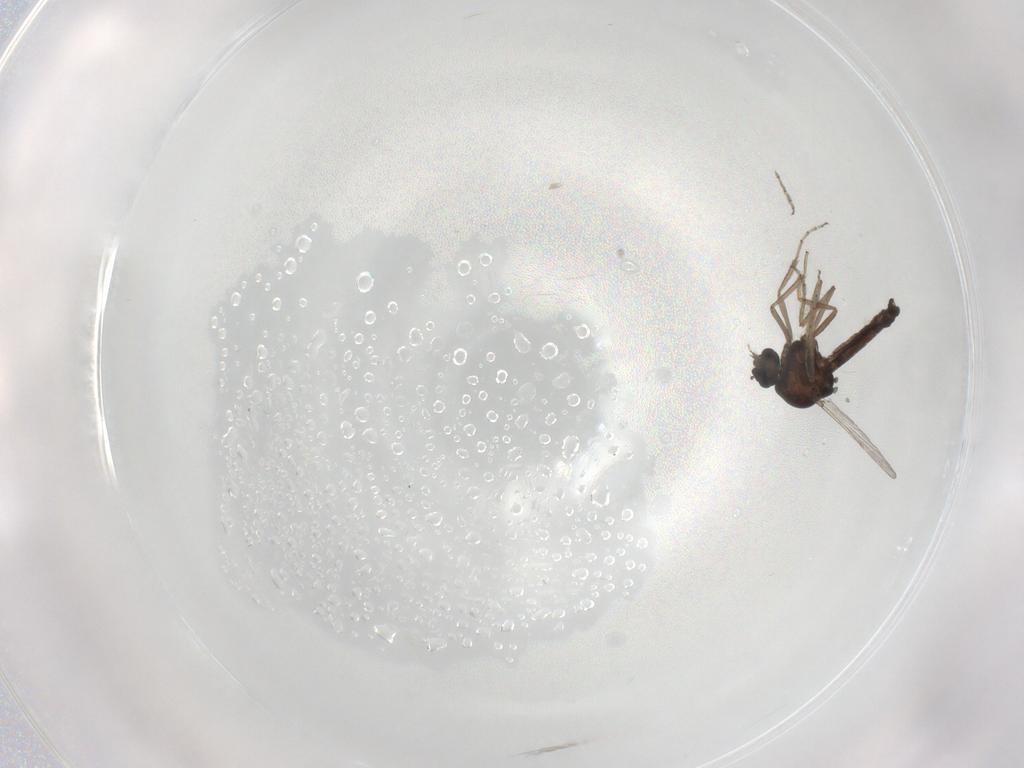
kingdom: Animalia
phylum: Arthropoda
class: Insecta
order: Diptera
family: Ceratopogonidae
